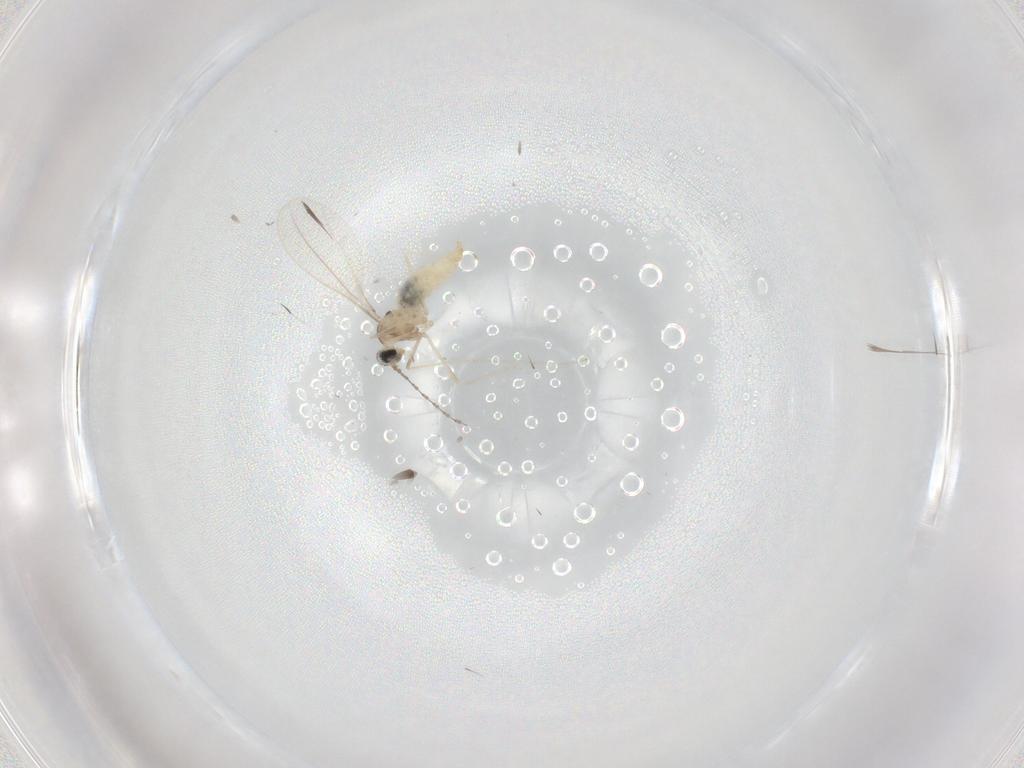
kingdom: Animalia
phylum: Arthropoda
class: Insecta
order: Diptera
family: Cecidomyiidae
